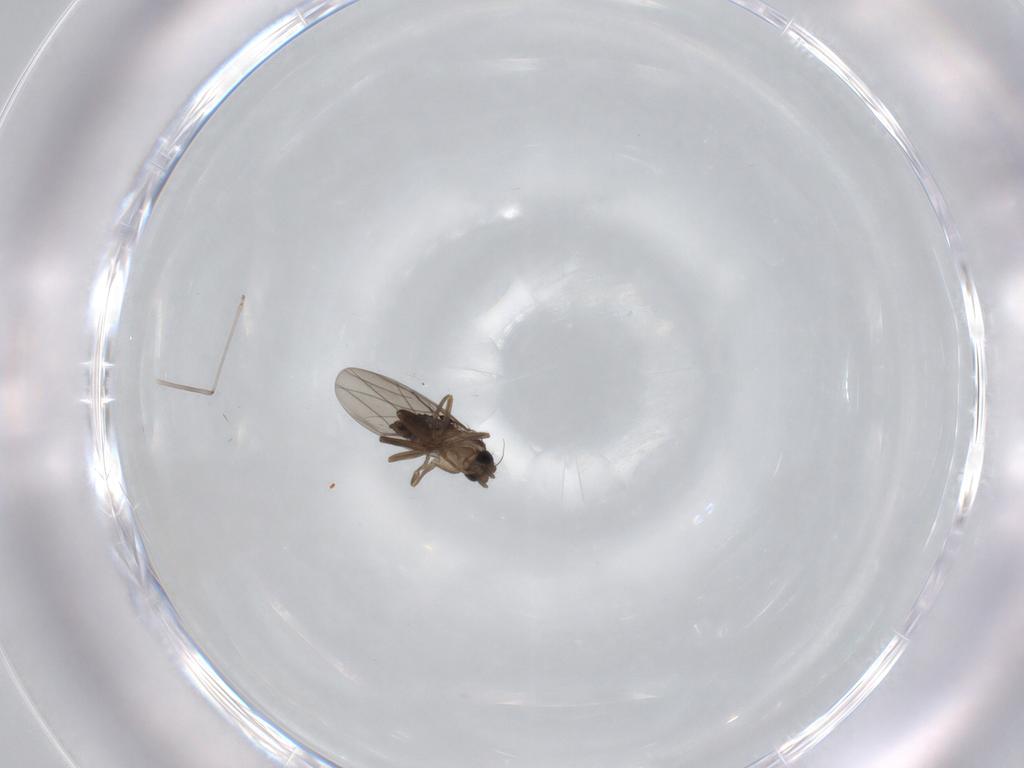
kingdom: Animalia
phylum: Arthropoda
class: Insecta
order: Diptera
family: Phoridae
